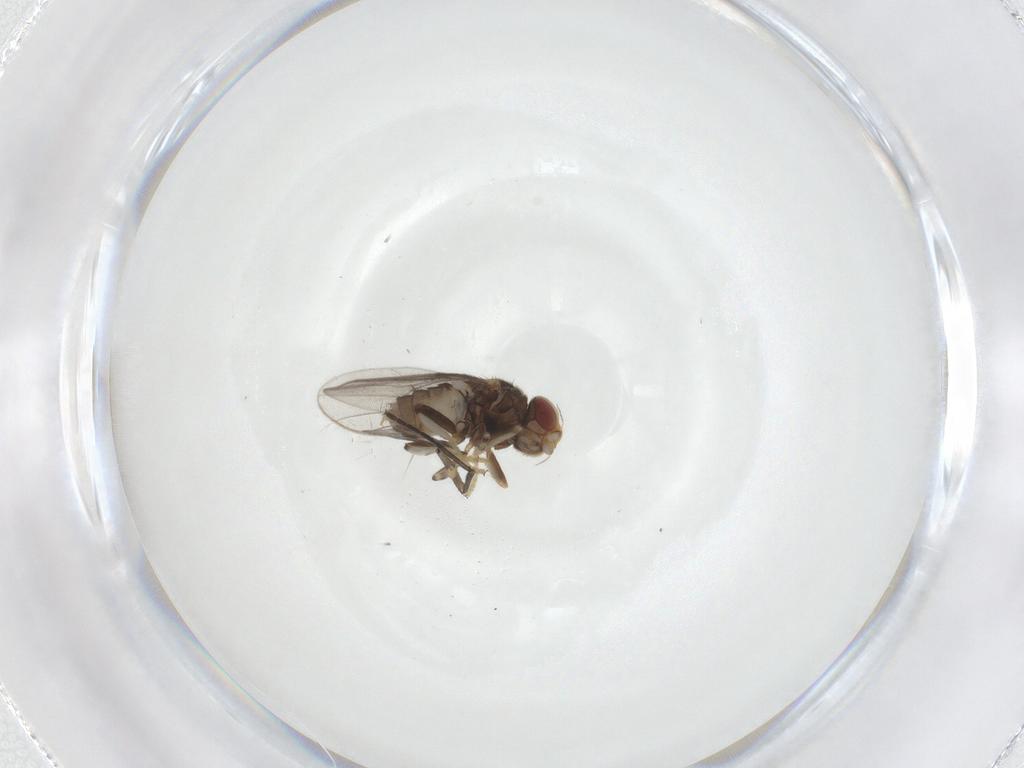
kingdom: Animalia
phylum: Arthropoda
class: Insecta
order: Diptera
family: Chloropidae
